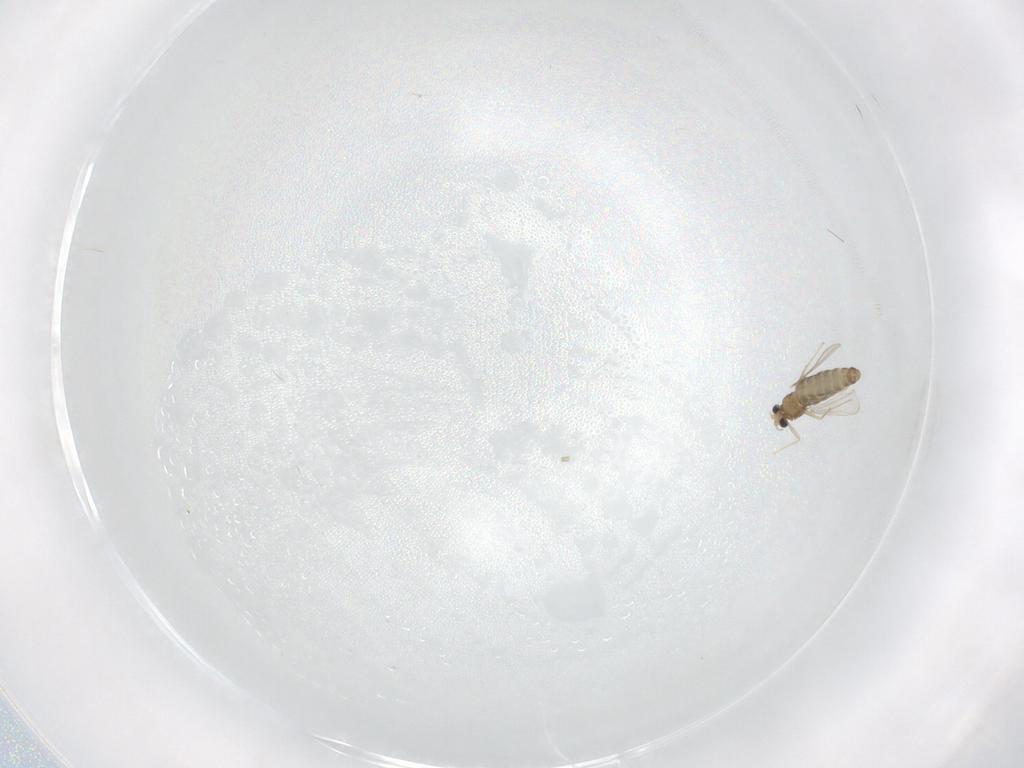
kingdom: Animalia
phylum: Arthropoda
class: Insecta
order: Diptera
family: Chironomidae
